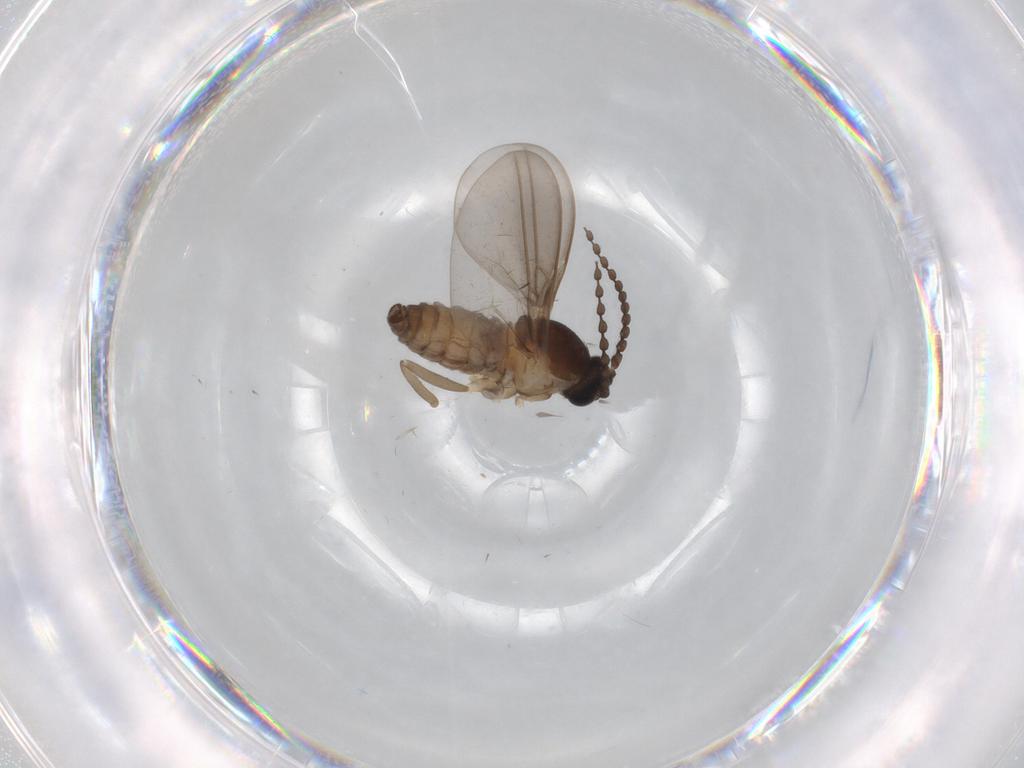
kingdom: Animalia
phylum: Arthropoda
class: Insecta
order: Diptera
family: Cecidomyiidae
